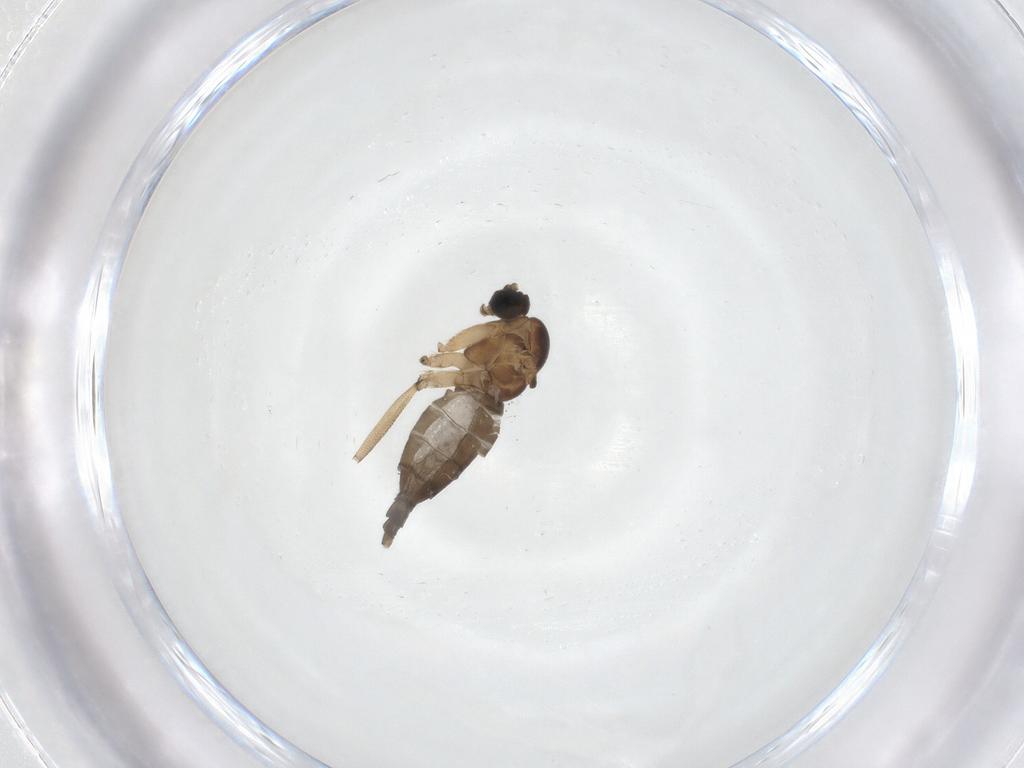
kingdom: Animalia
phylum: Arthropoda
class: Insecta
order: Diptera
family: Sciaridae
